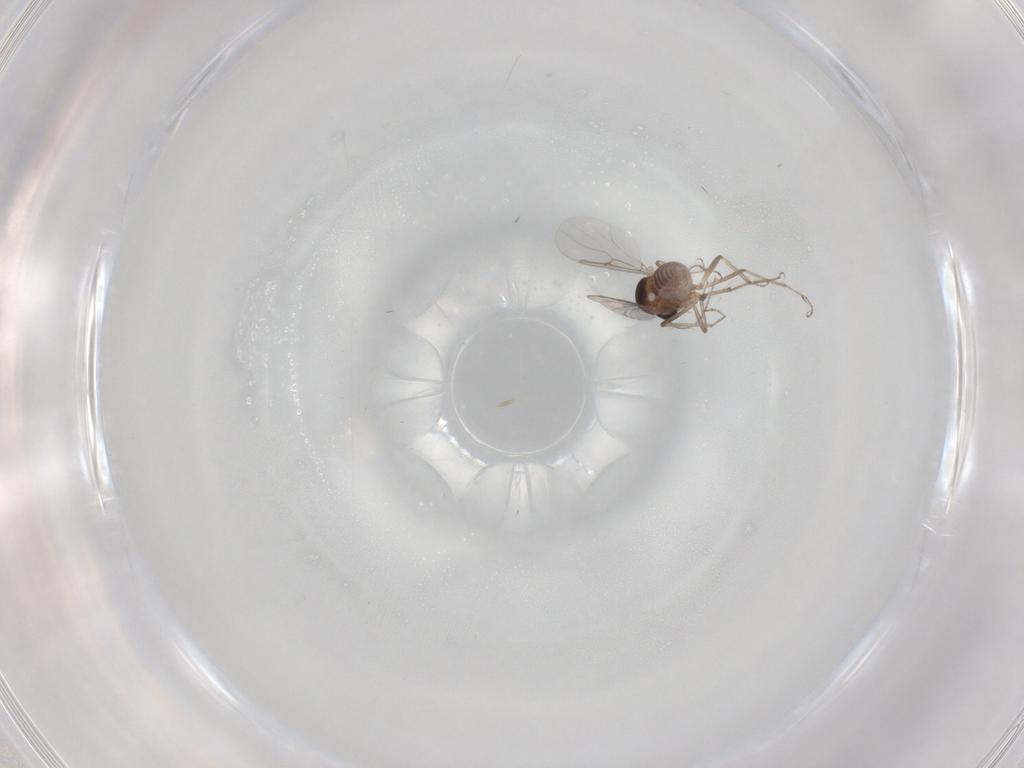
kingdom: Animalia
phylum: Arthropoda
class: Insecta
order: Diptera
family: Ceratopogonidae
